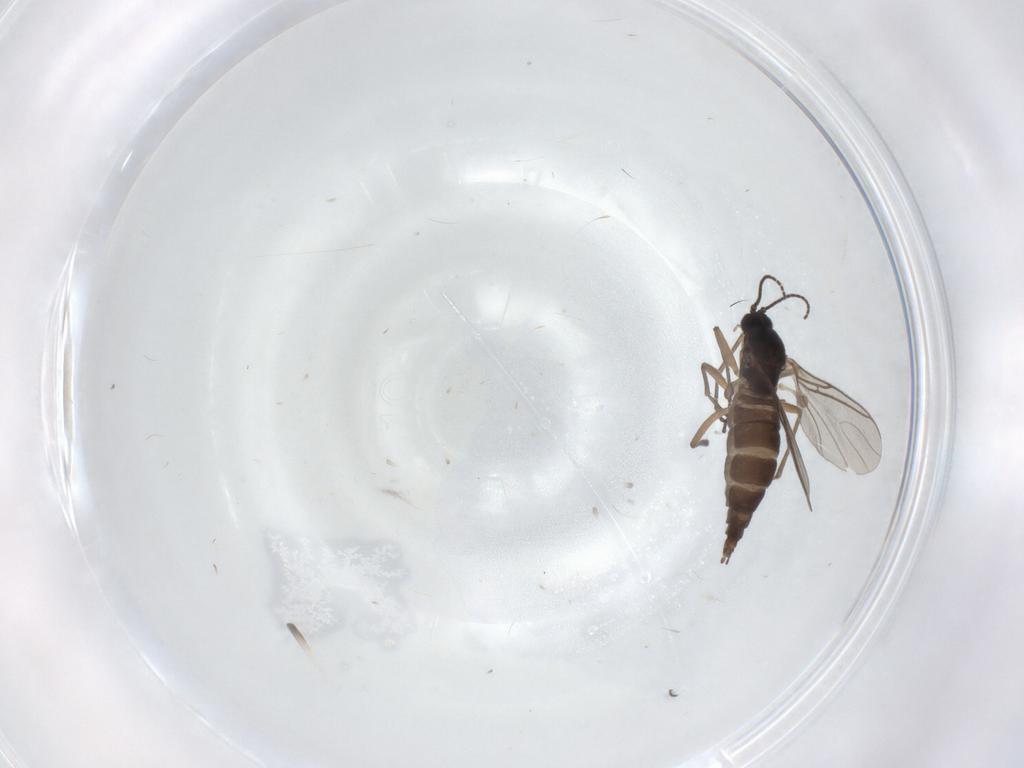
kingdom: Animalia
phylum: Arthropoda
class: Insecta
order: Diptera
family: Ceratopogonidae
